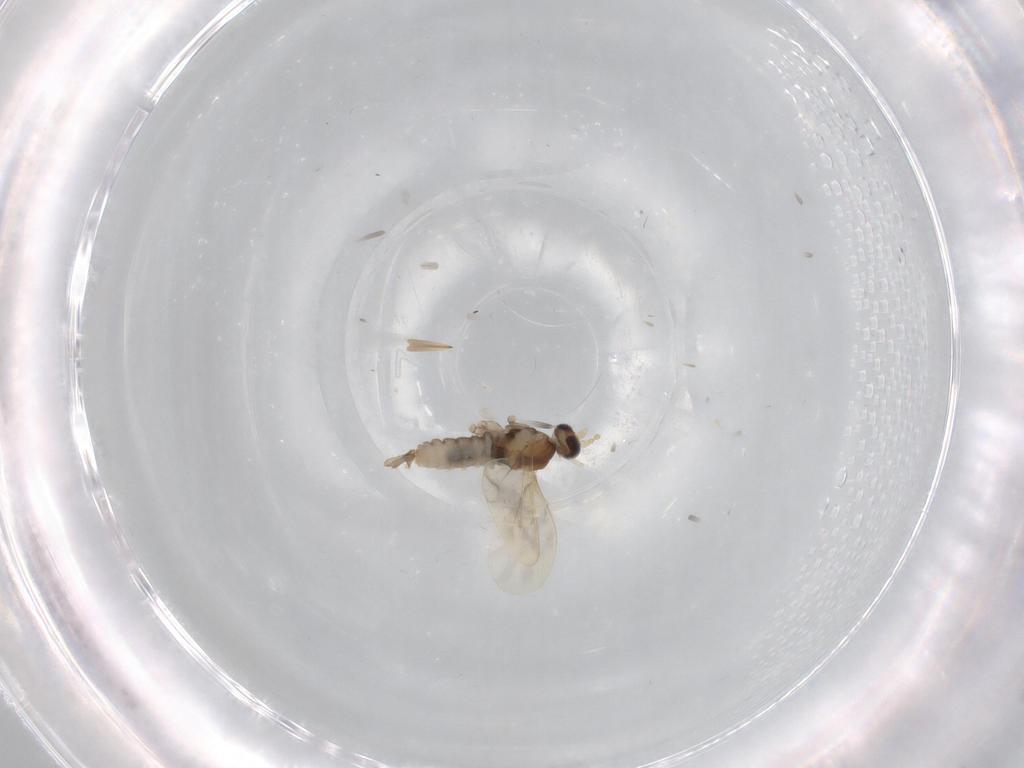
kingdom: Animalia
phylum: Arthropoda
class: Insecta
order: Diptera
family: Cecidomyiidae
